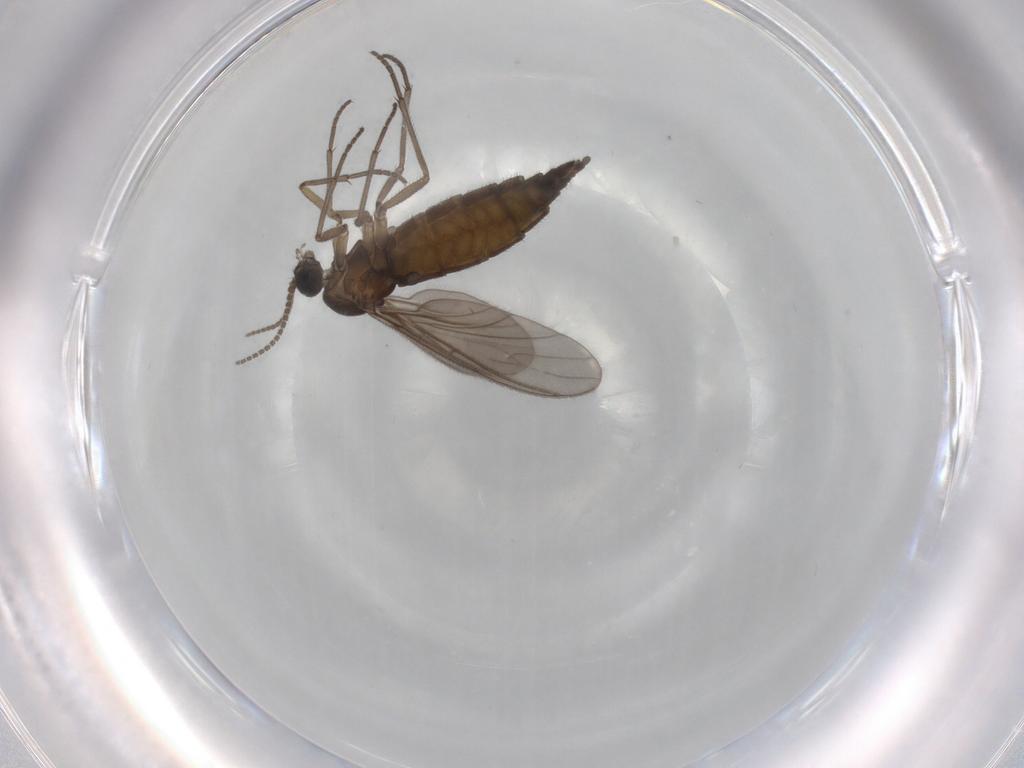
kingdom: Animalia
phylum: Arthropoda
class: Insecta
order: Diptera
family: Sciaridae
